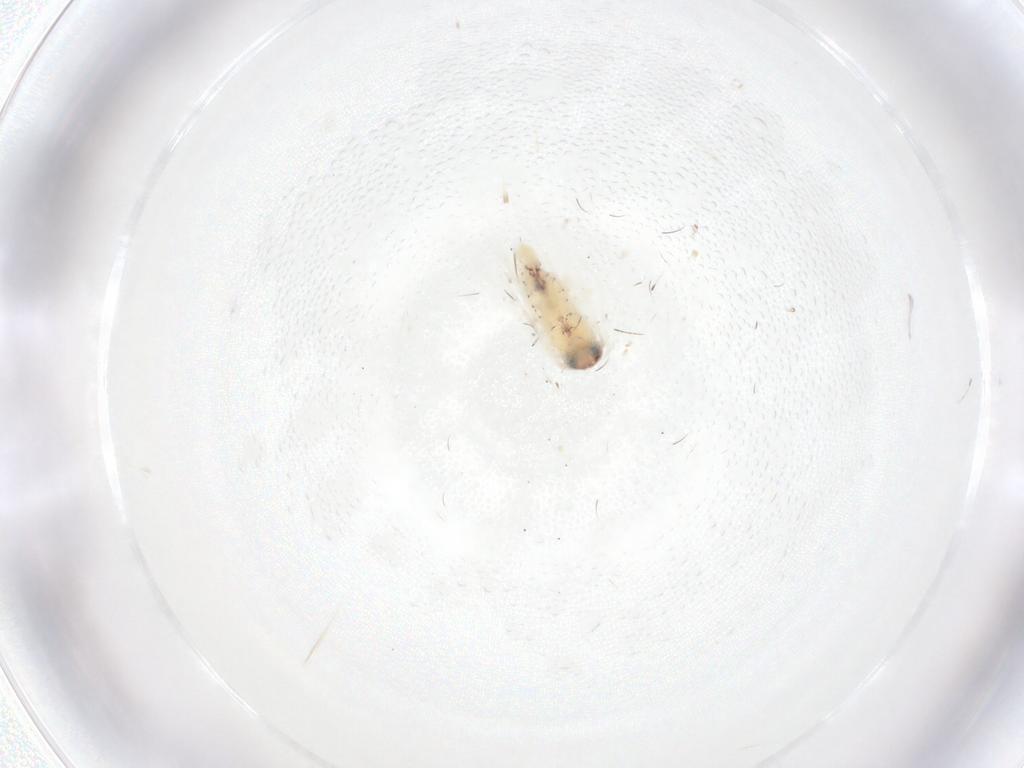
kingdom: Animalia
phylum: Arthropoda
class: Insecta
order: Lepidoptera
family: Gelechiidae
